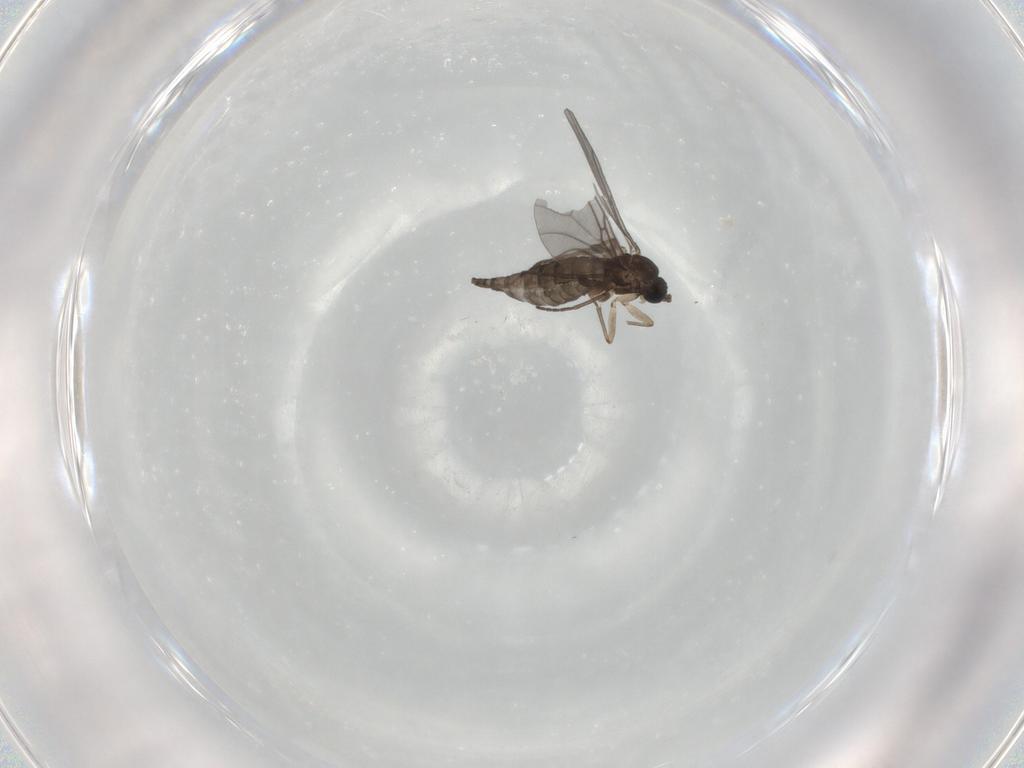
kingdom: Animalia
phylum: Arthropoda
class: Insecta
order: Diptera
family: Sciaridae
